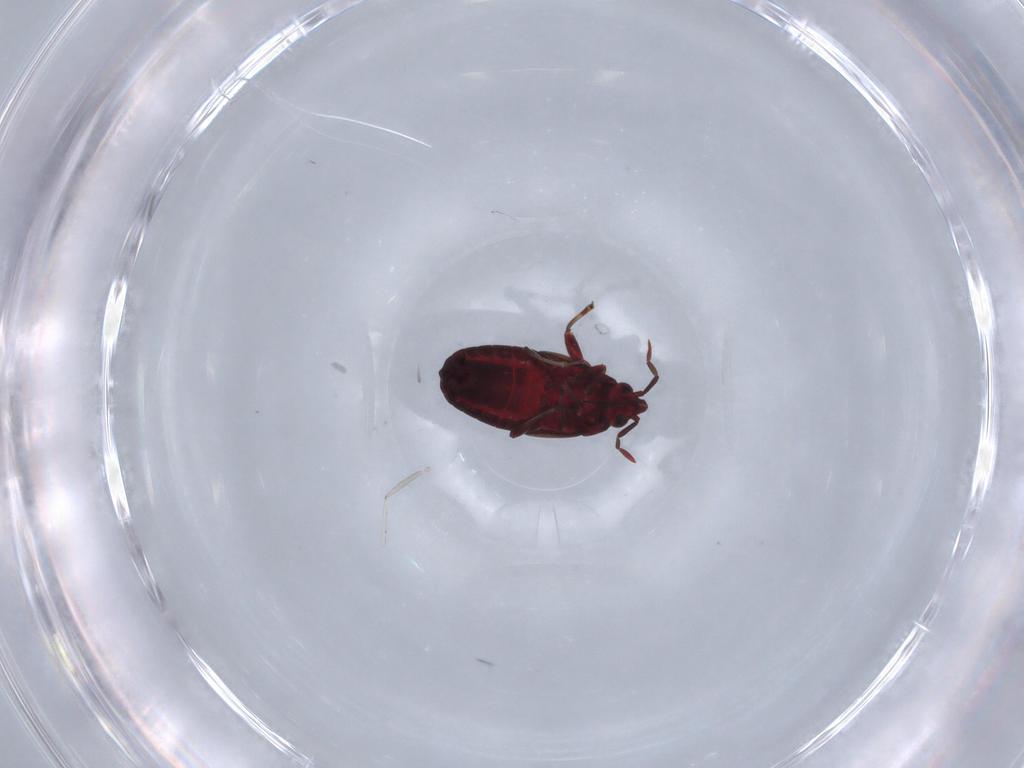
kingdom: Animalia
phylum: Arthropoda
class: Insecta
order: Hemiptera
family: Anthocoridae
